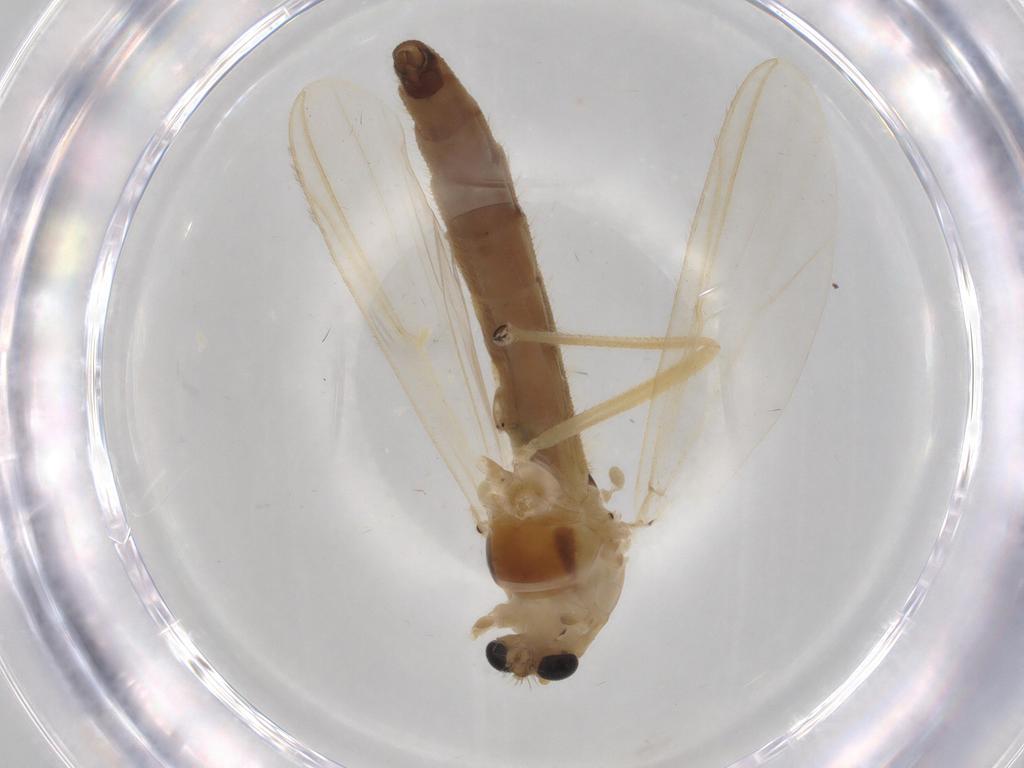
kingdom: Animalia
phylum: Arthropoda
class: Insecta
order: Diptera
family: Chironomidae
